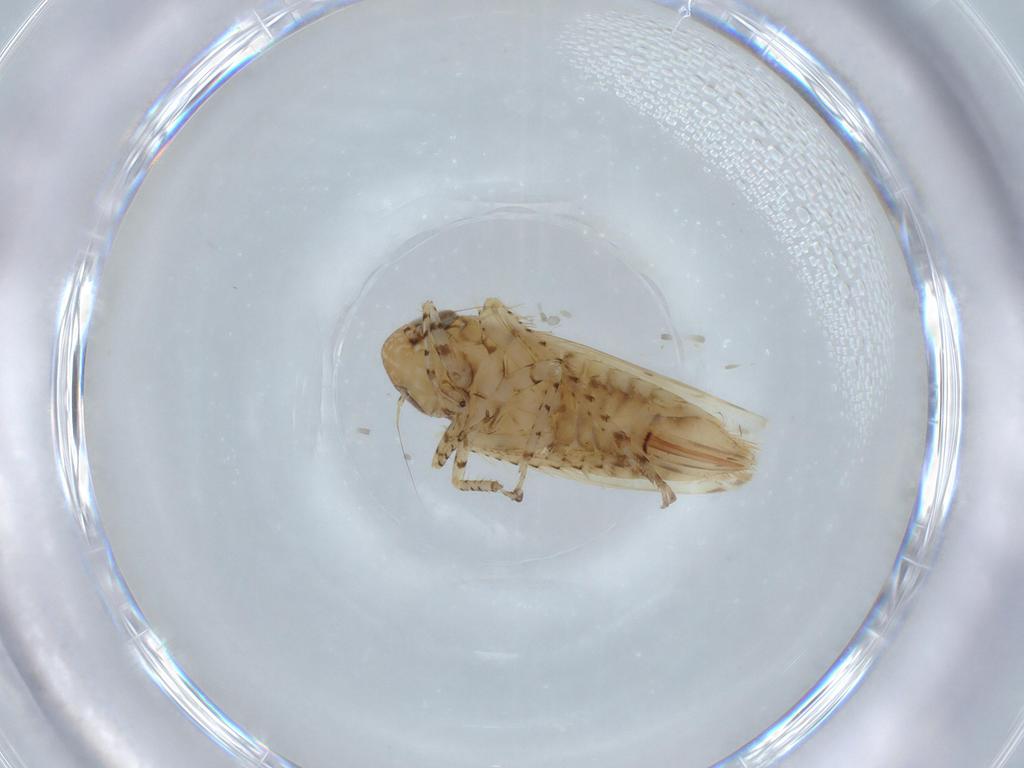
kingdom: Animalia
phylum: Arthropoda
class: Insecta
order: Hemiptera
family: Cicadellidae
